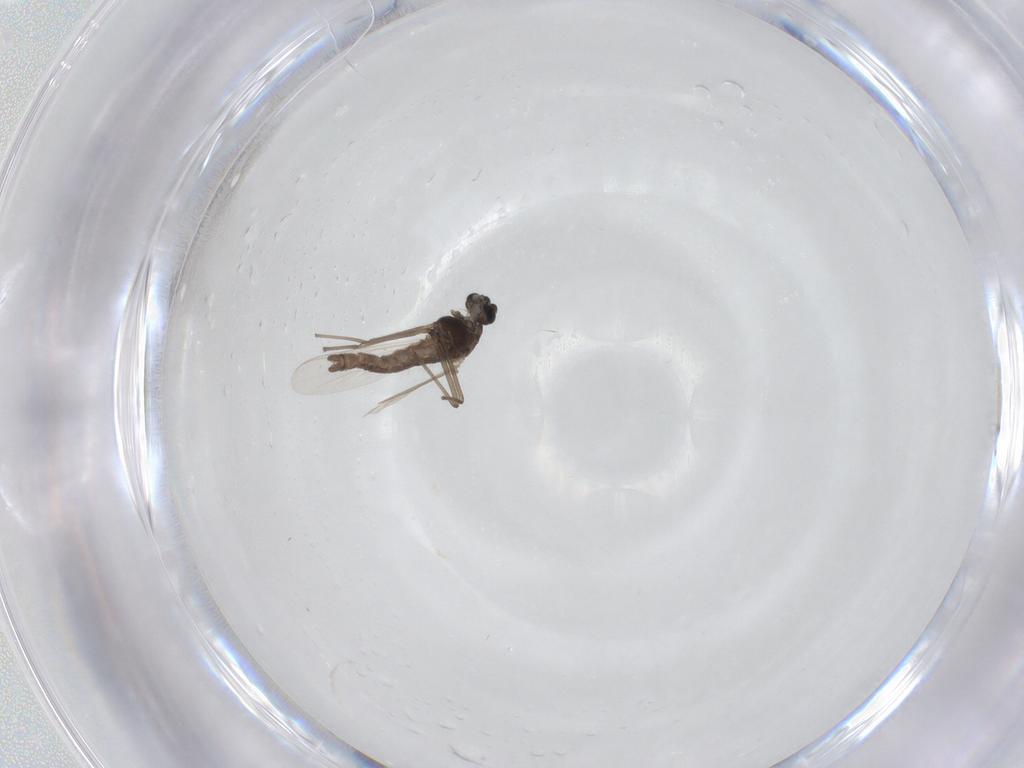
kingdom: Animalia
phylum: Arthropoda
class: Insecta
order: Diptera
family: Chironomidae
